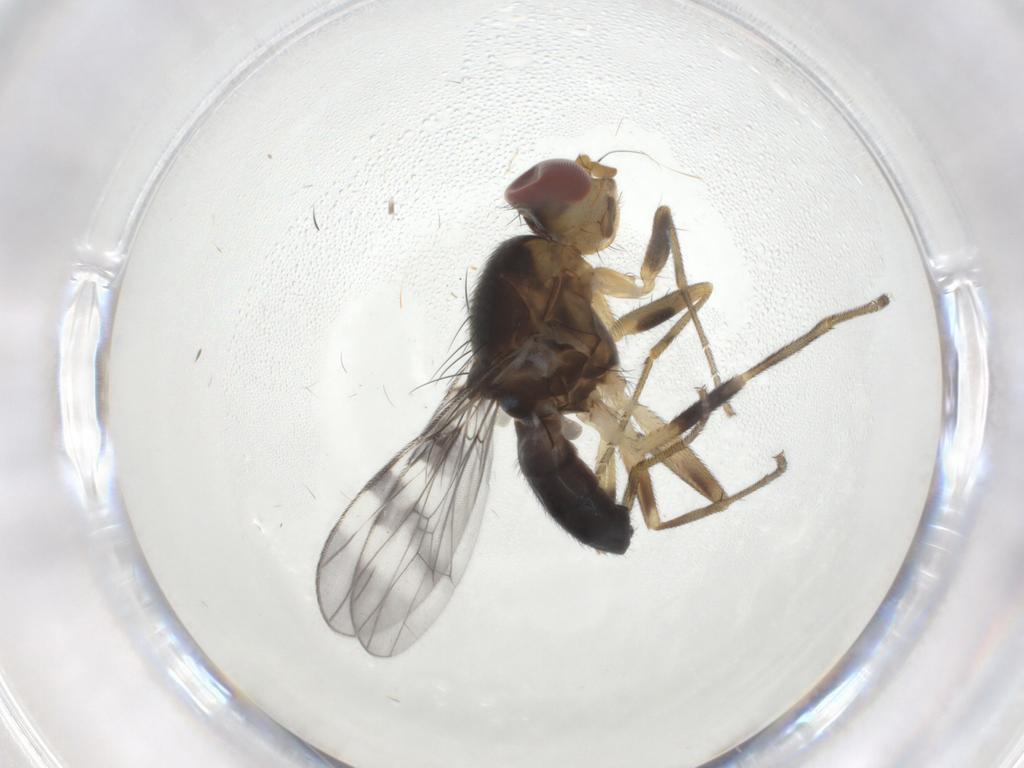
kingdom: Animalia
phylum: Arthropoda
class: Insecta
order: Diptera
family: Tephritidae
